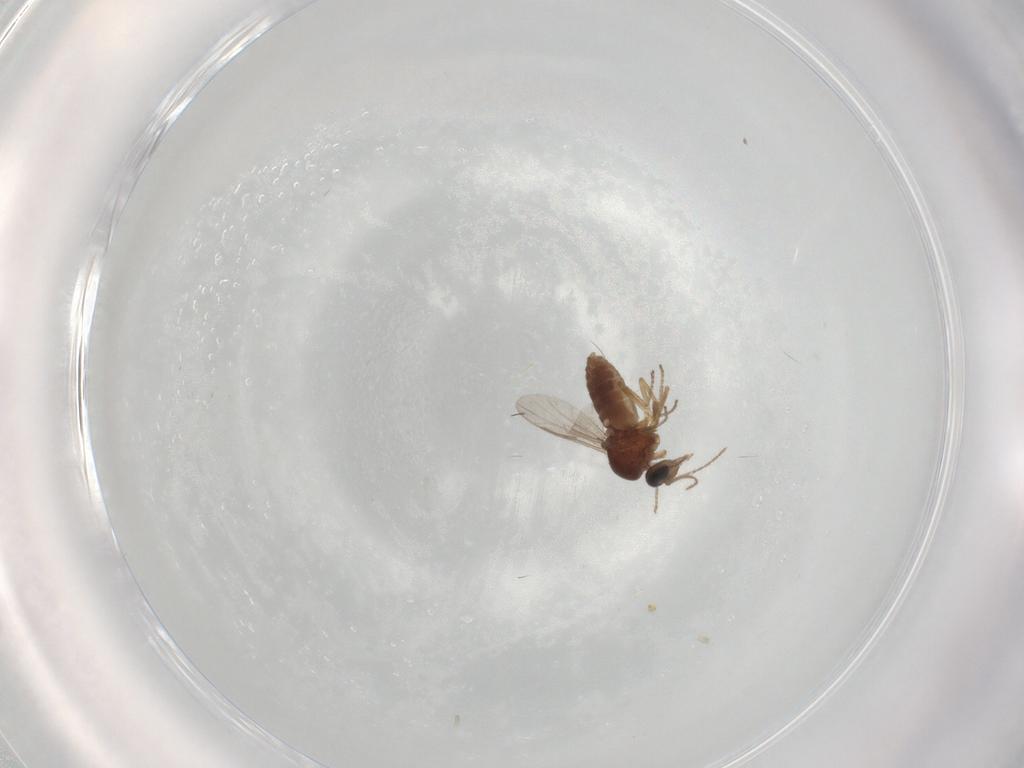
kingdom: Animalia
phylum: Arthropoda
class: Insecta
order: Diptera
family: Ceratopogonidae
